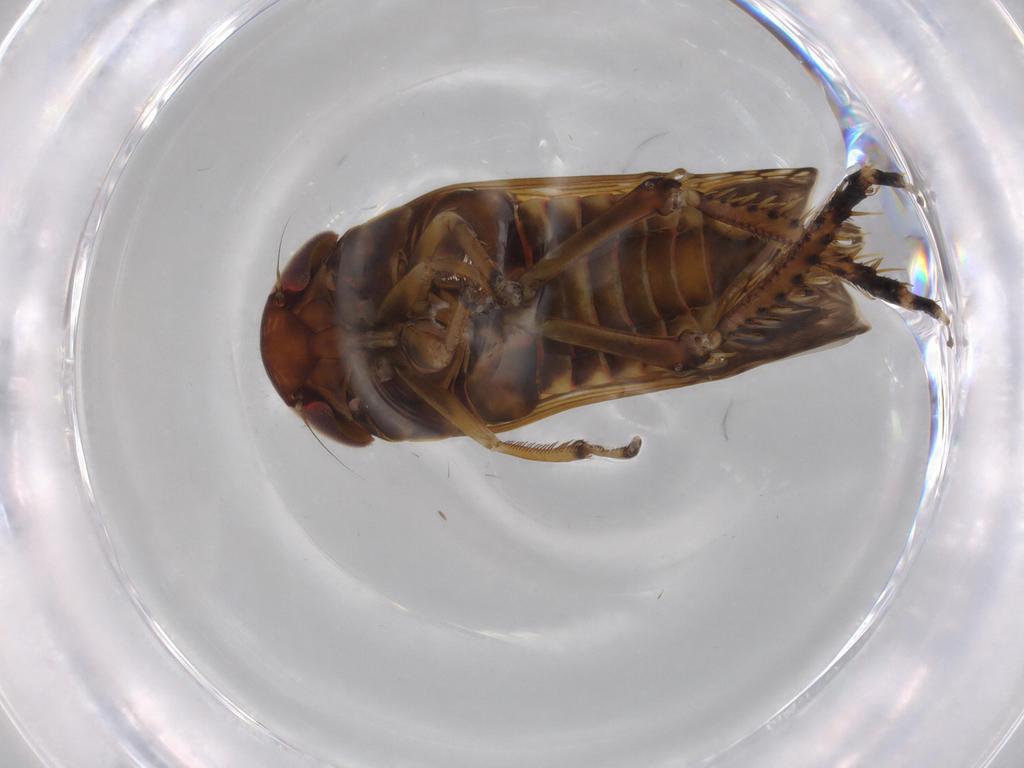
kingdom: Animalia
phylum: Arthropoda
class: Insecta
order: Hemiptera
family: Cicadellidae
